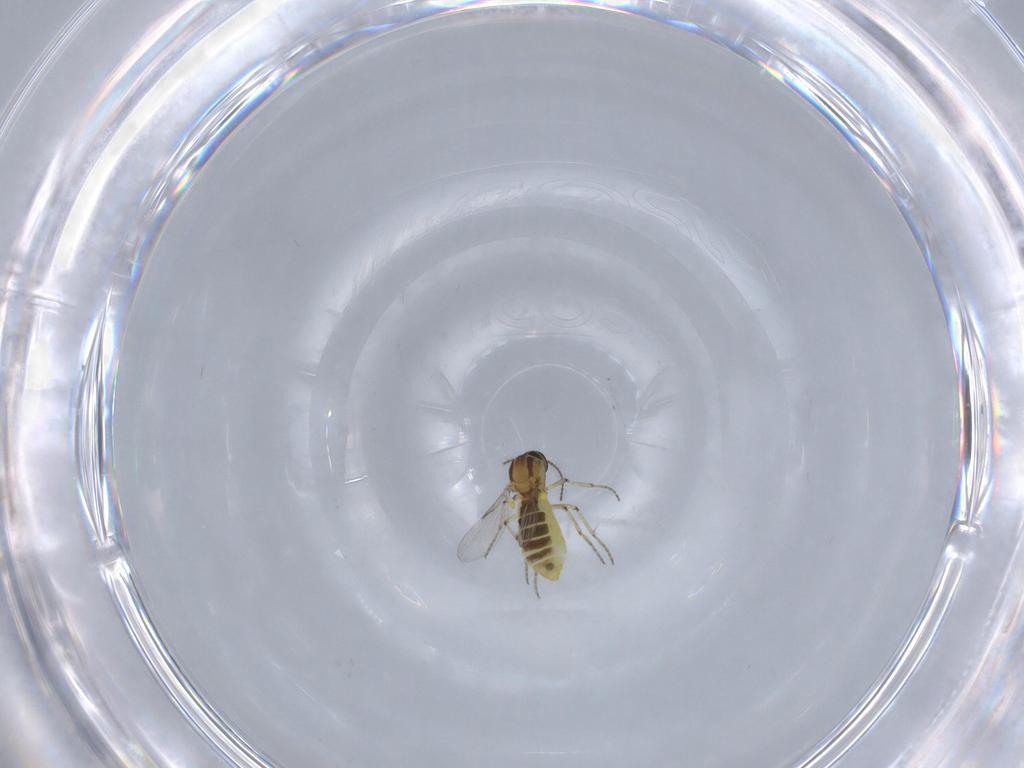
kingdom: Animalia
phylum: Arthropoda
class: Insecta
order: Diptera
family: Ceratopogonidae
